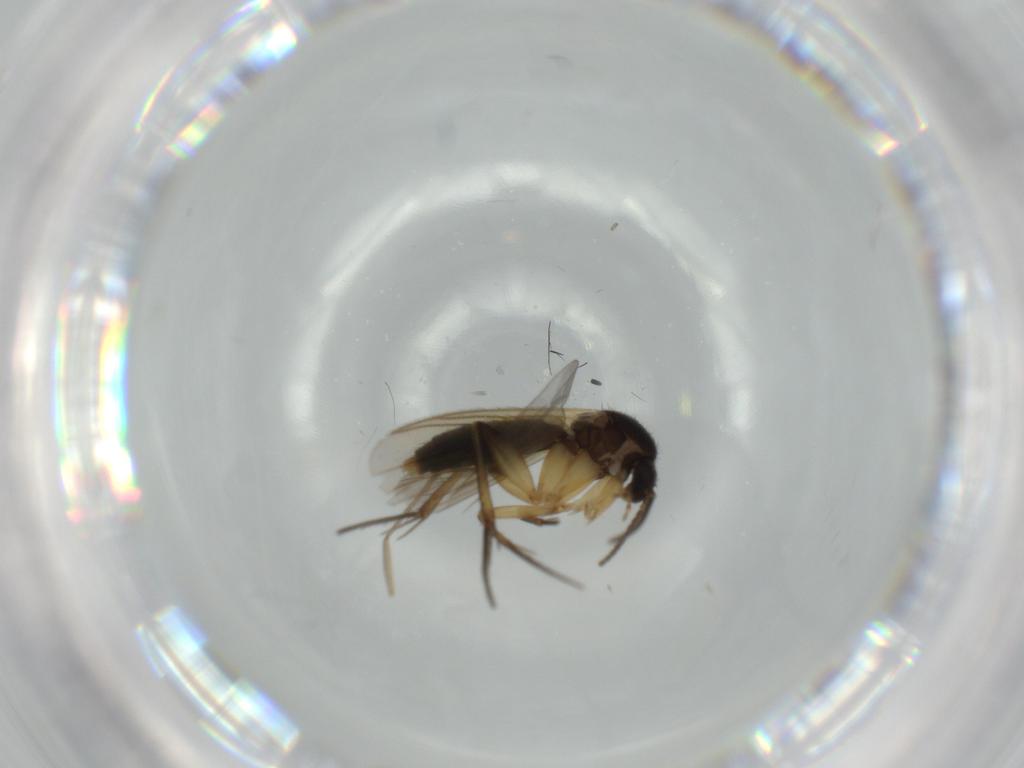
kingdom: Animalia
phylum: Arthropoda
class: Insecta
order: Diptera
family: Mycetophilidae
